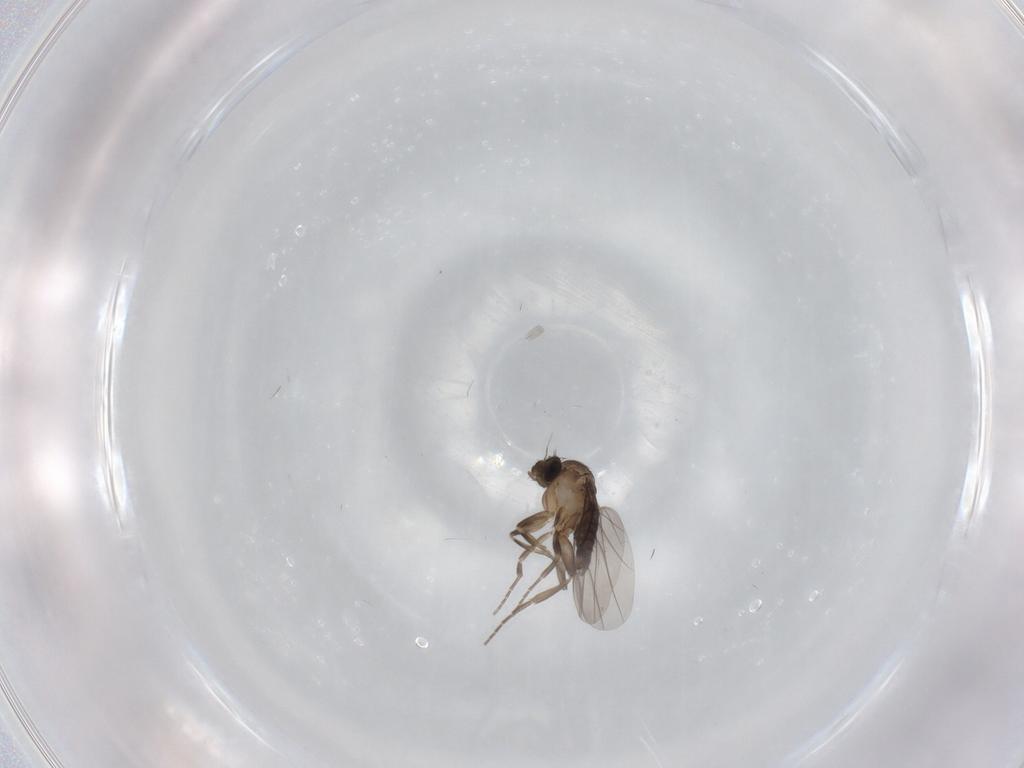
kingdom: Animalia
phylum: Arthropoda
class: Insecta
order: Diptera
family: Phoridae
